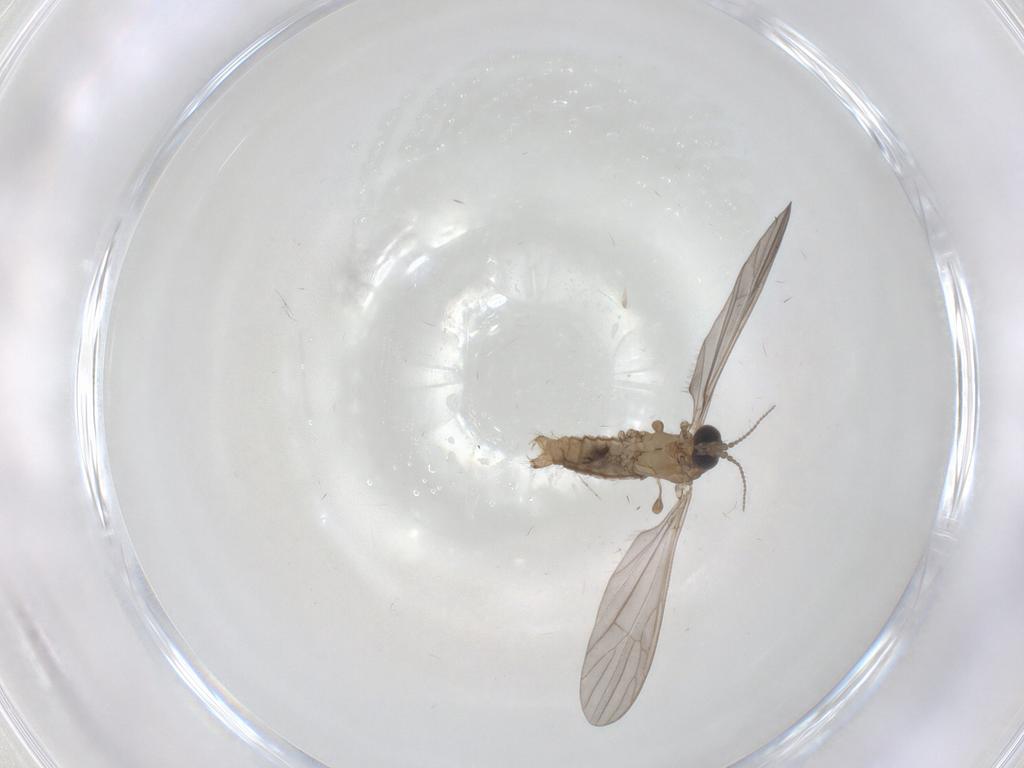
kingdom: Animalia
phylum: Arthropoda
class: Insecta
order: Diptera
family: Limoniidae
